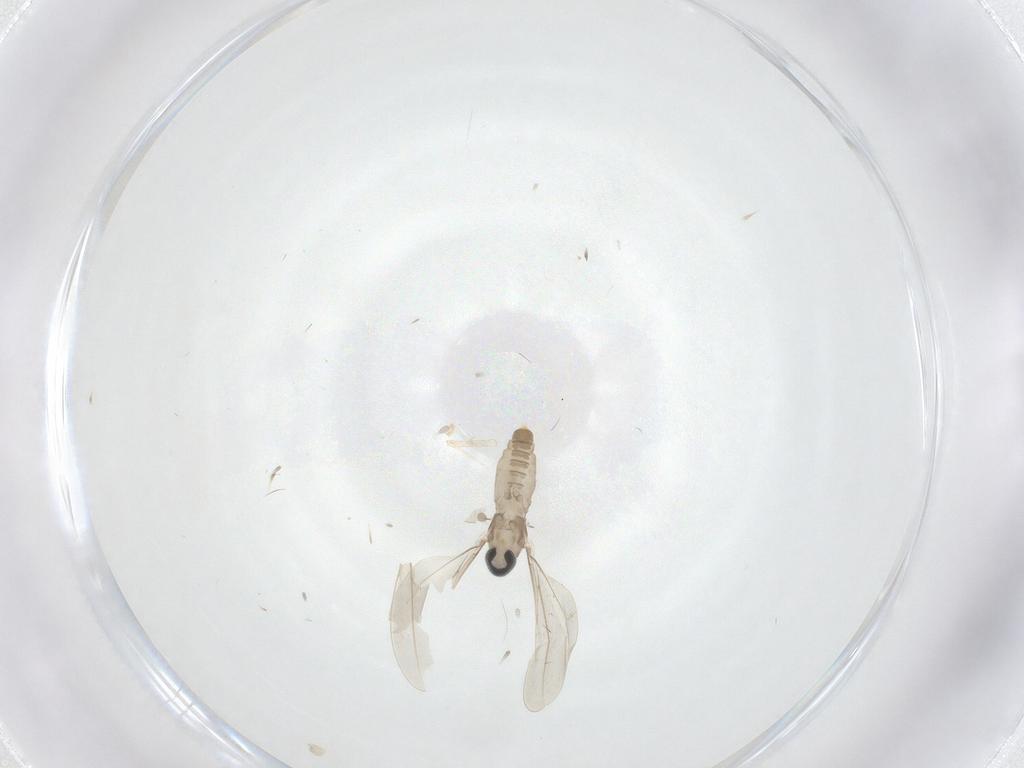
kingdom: Animalia
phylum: Arthropoda
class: Insecta
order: Diptera
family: Cecidomyiidae
